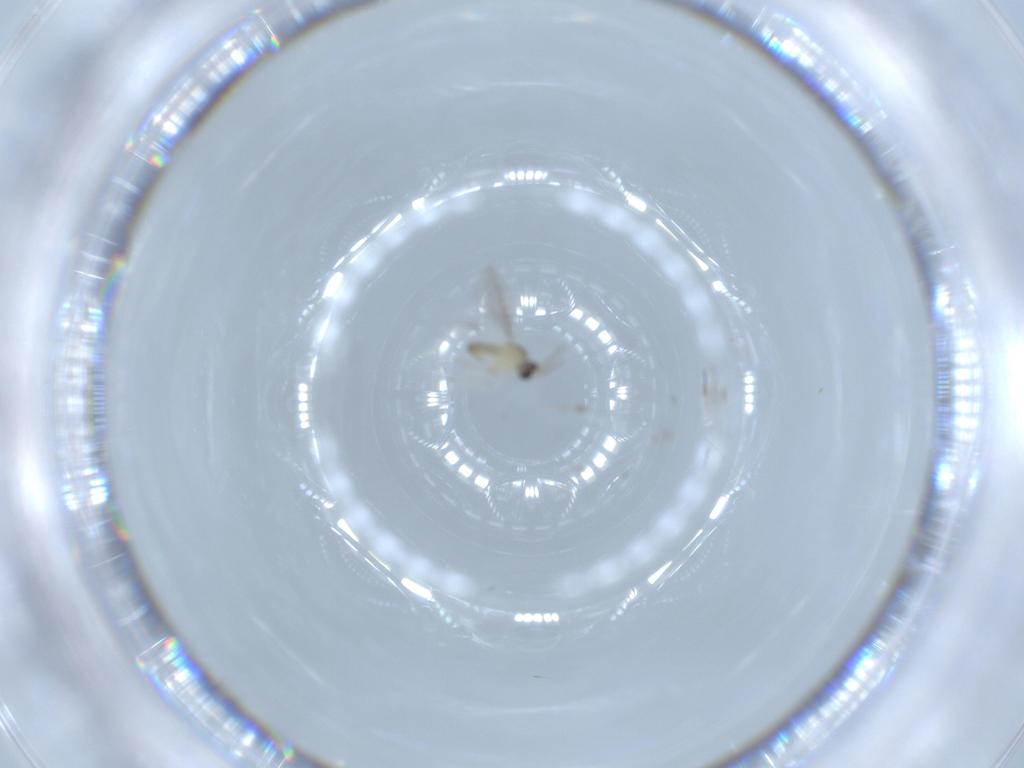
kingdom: Animalia
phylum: Arthropoda
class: Insecta
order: Diptera
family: Cecidomyiidae
